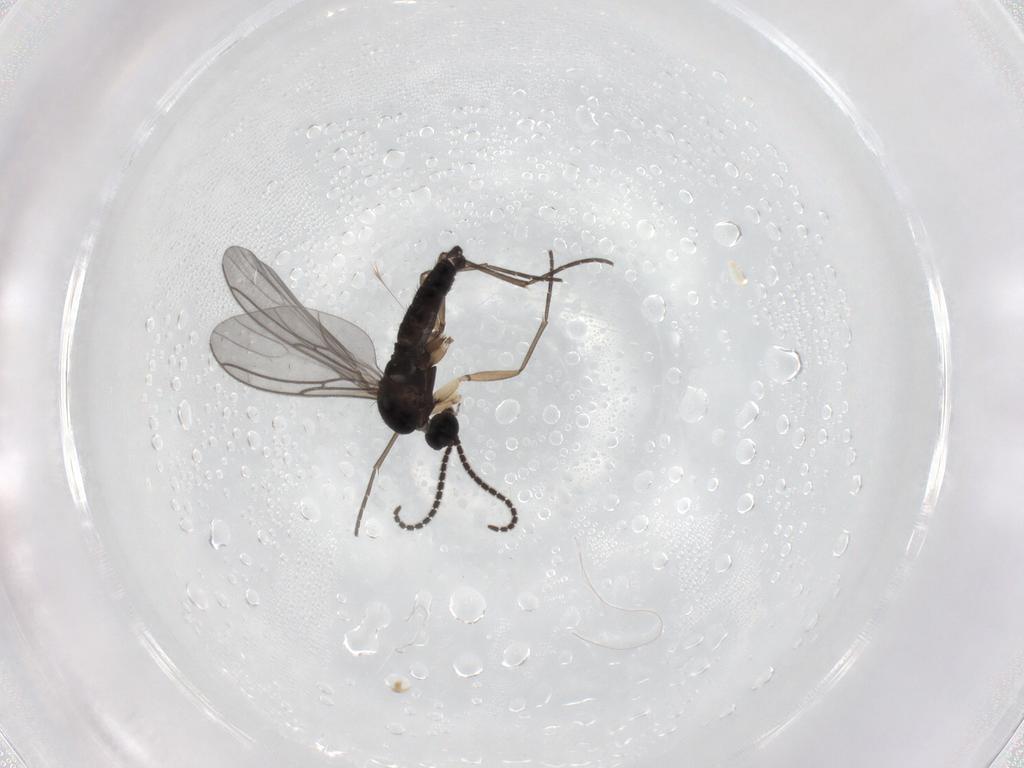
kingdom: Animalia
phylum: Arthropoda
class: Insecta
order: Diptera
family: Sciaridae
